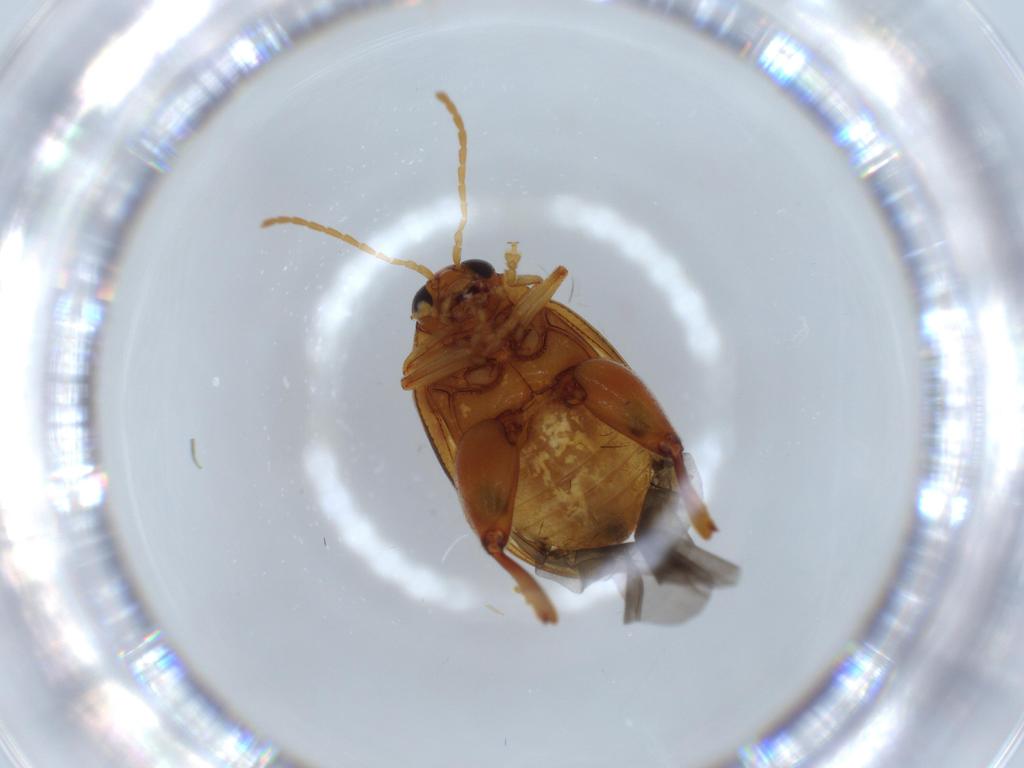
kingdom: Animalia
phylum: Arthropoda
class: Insecta
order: Coleoptera
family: Chrysomelidae
